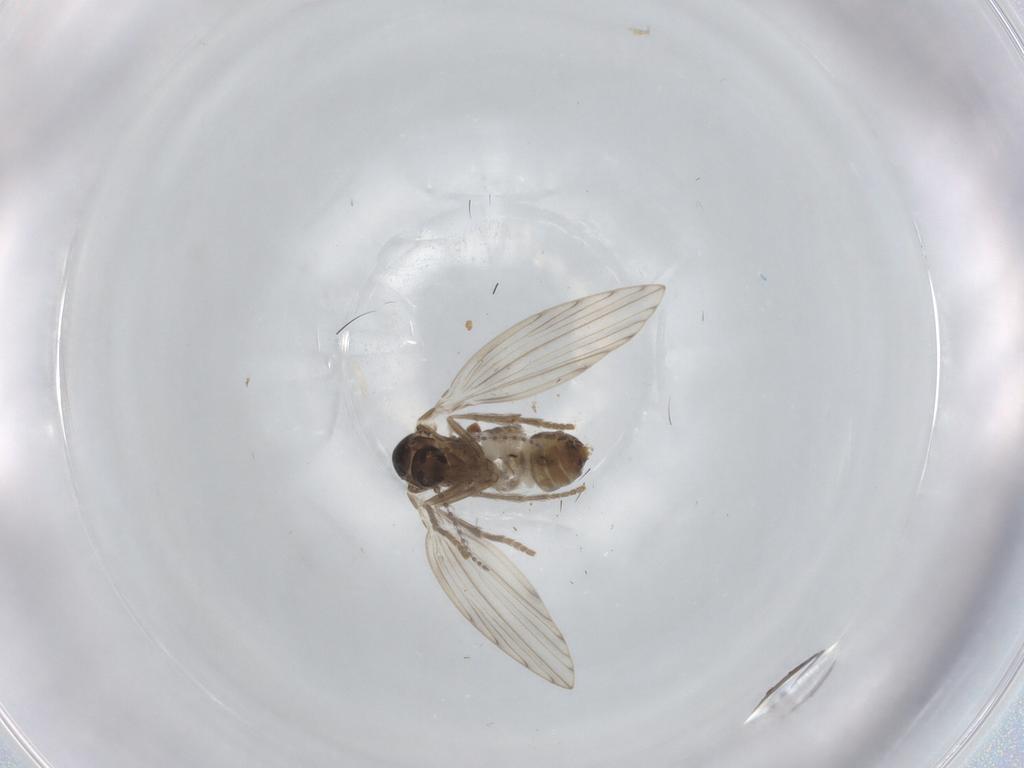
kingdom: Animalia
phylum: Arthropoda
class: Insecta
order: Diptera
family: Psychodidae
